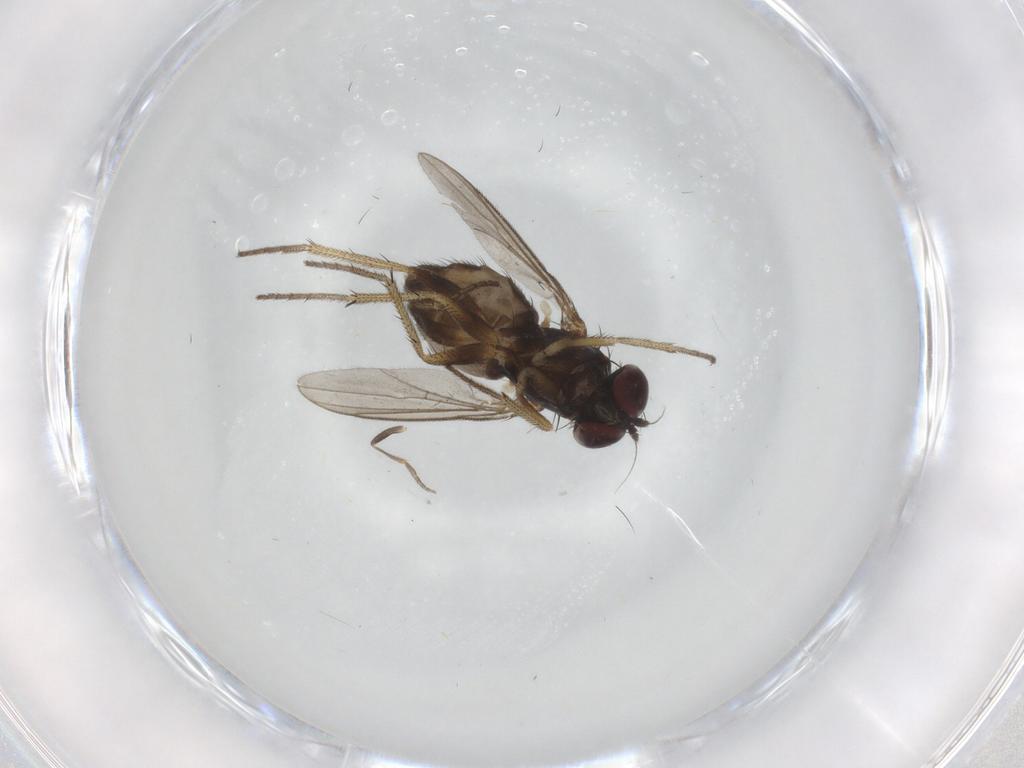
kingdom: Animalia
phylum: Arthropoda
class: Insecta
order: Diptera
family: Dolichopodidae
